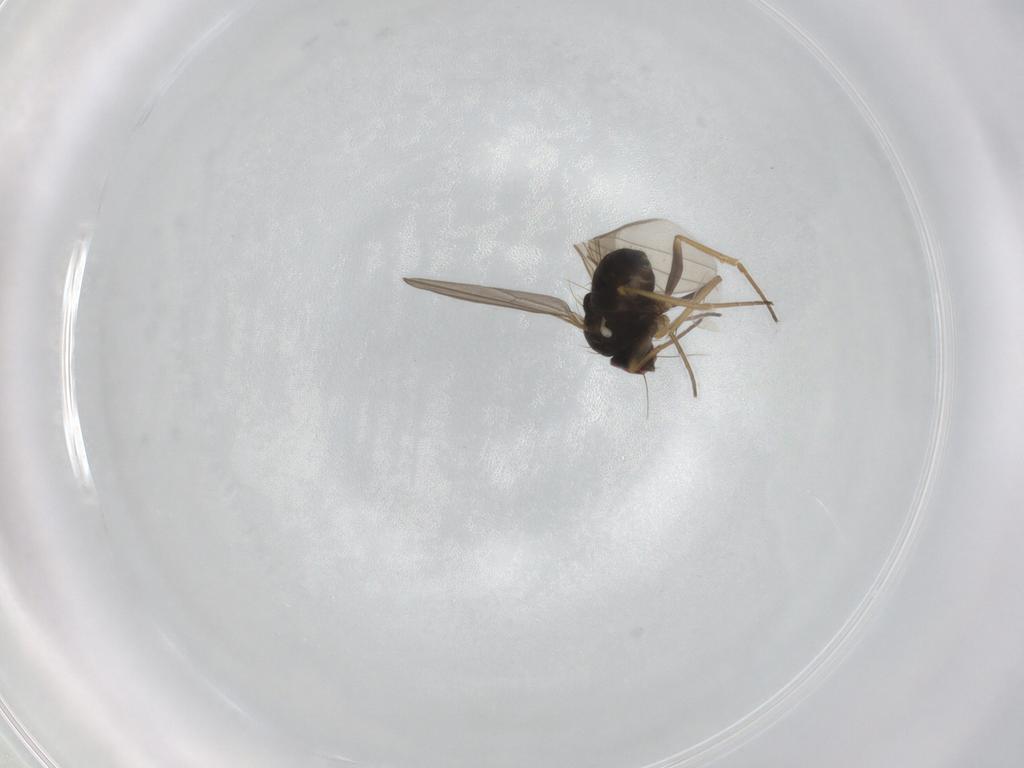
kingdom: Animalia
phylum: Arthropoda
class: Insecta
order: Diptera
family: Dolichopodidae
